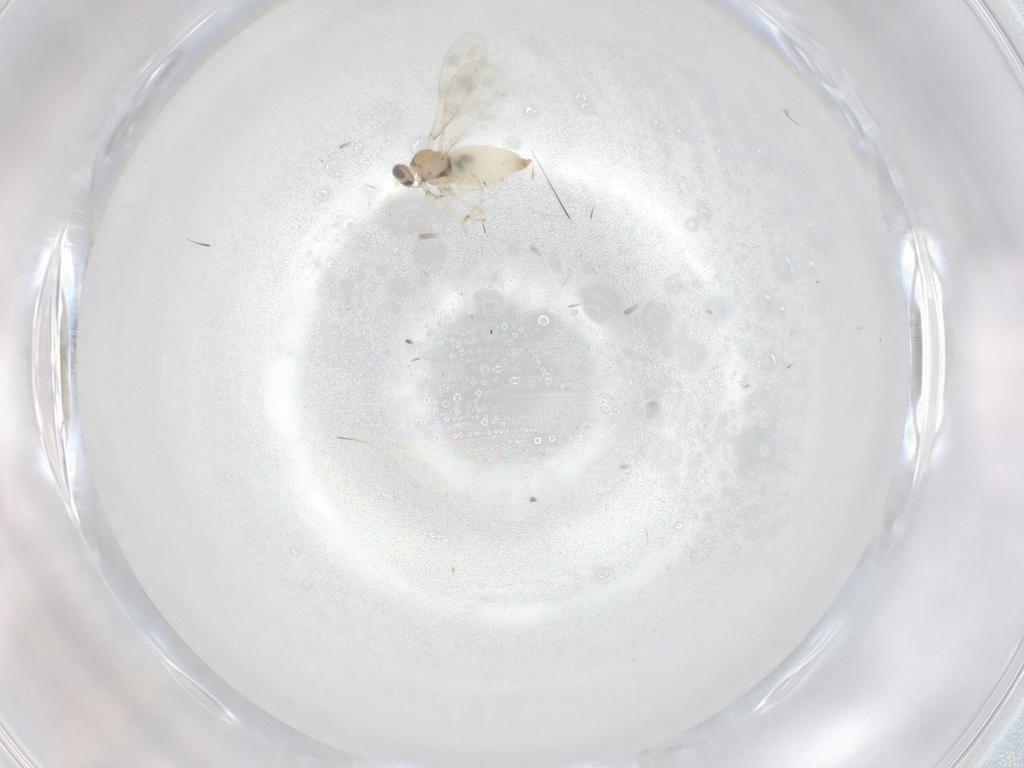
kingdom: Animalia
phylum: Arthropoda
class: Insecta
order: Diptera
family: Cecidomyiidae
